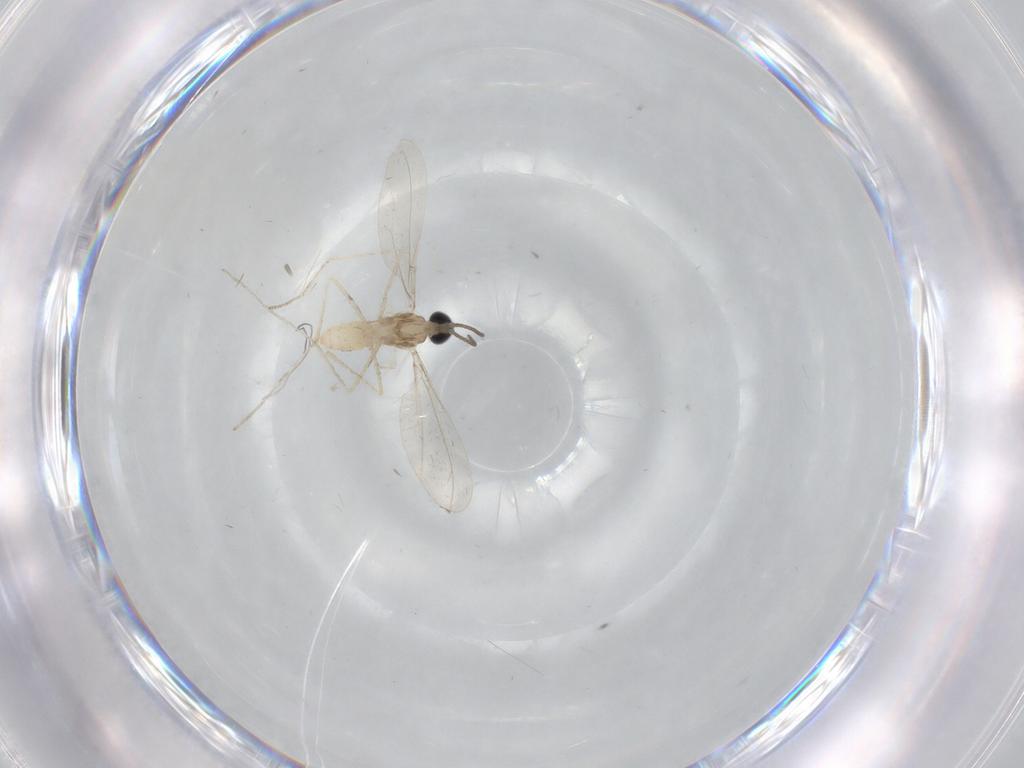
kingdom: Animalia
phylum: Arthropoda
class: Insecta
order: Diptera
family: Cecidomyiidae
